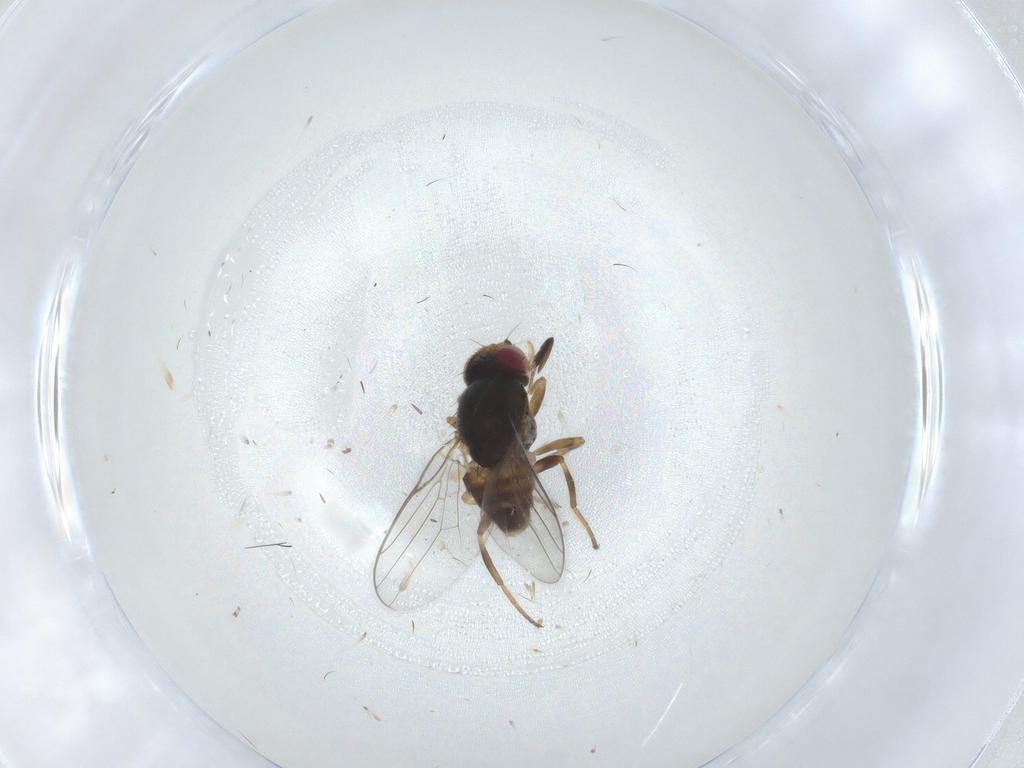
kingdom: Animalia
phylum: Arthropoda
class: Insecta
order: Diptera
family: Chloropidae
